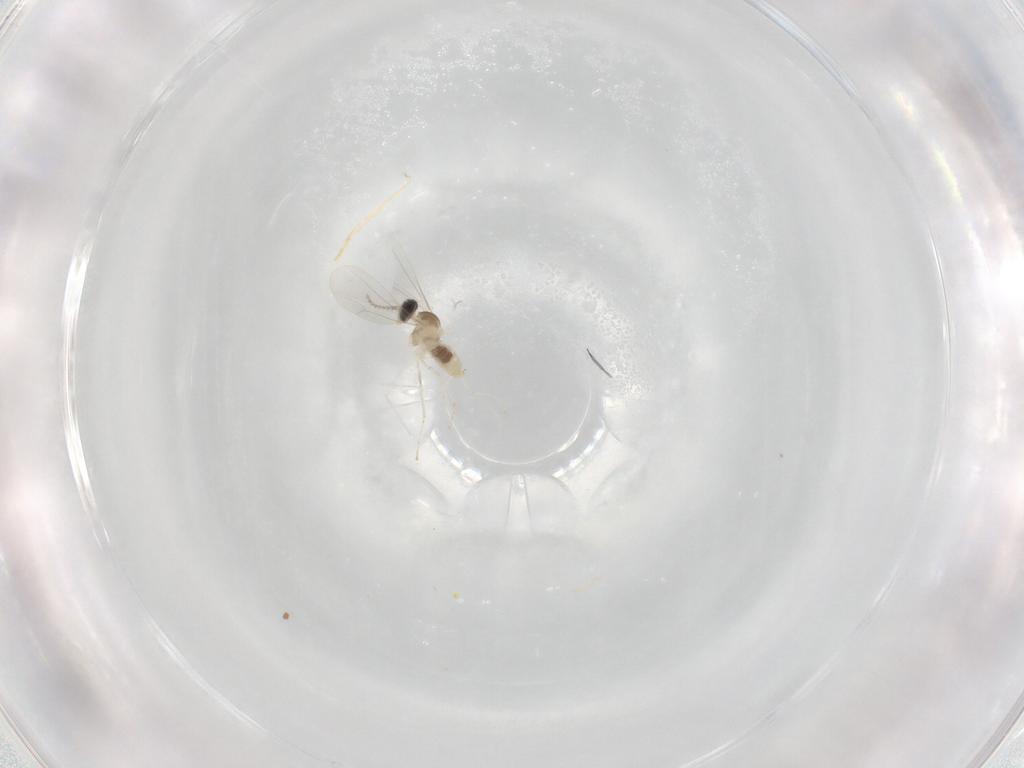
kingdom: Animalia
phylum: Arthropoda
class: Insecta
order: Diptera
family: Cecidomyiidae
